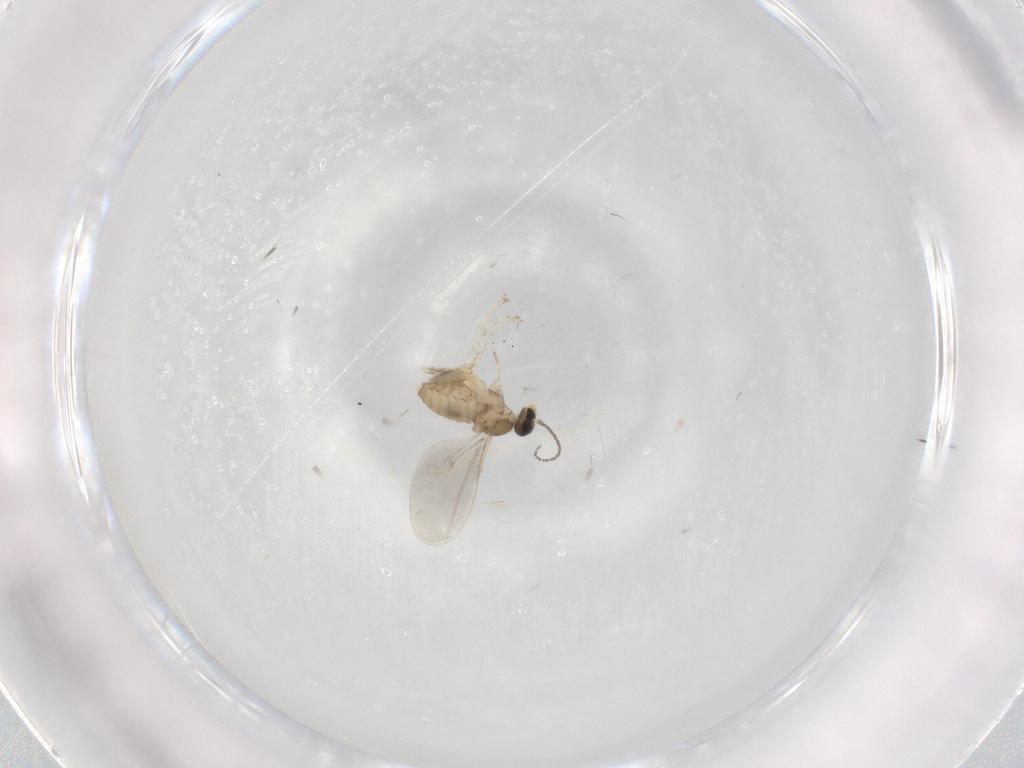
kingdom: Animalia
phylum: Arthropoda
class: Insecta
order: Diptera
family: Cecidomyiidae
